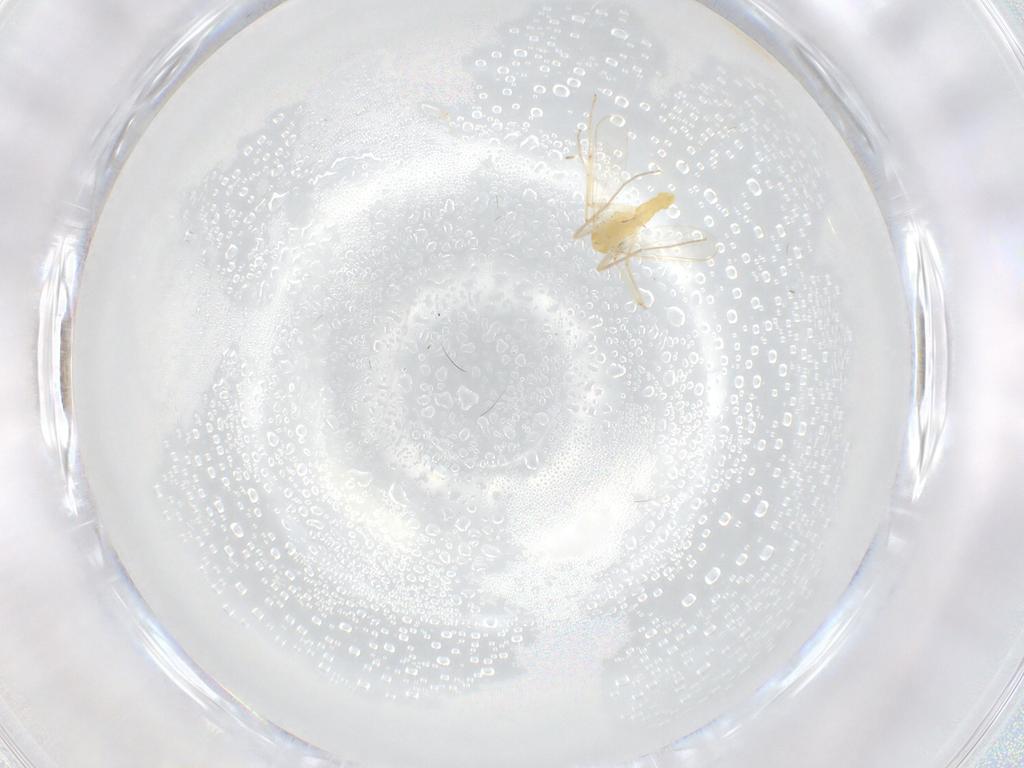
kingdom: Animalia
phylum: Arthropoda
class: Insecta
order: Diptera
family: Chironomidae
